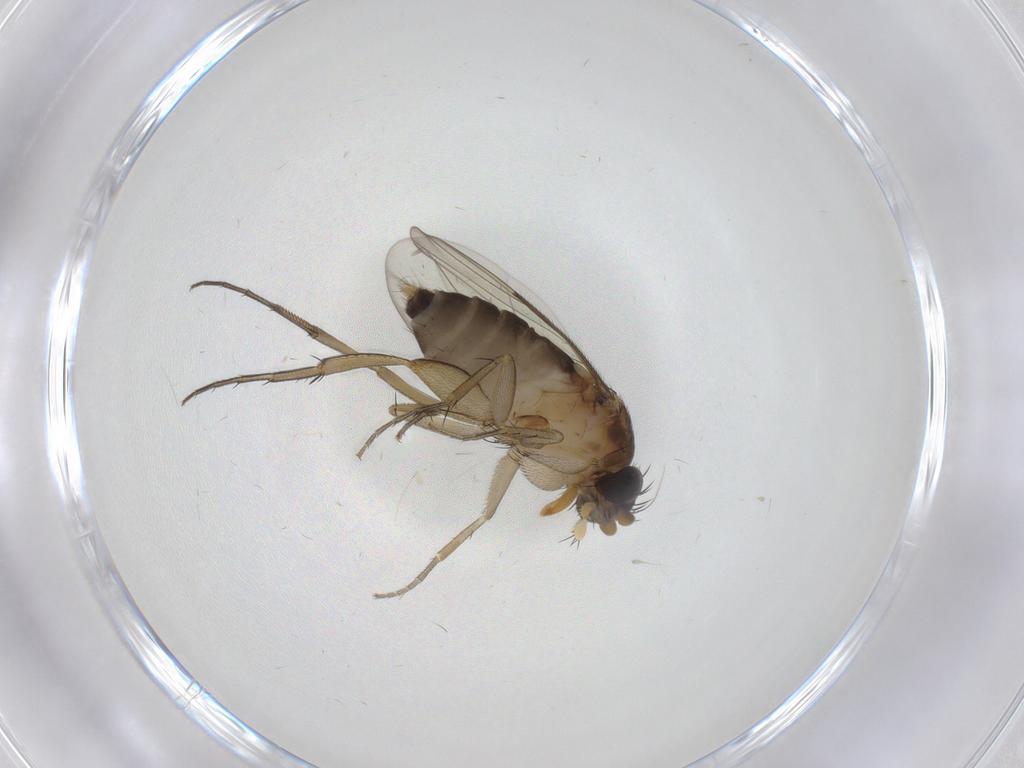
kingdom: Animalia
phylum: Arthropoda
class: Insecta
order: Diptera
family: Phoridae
